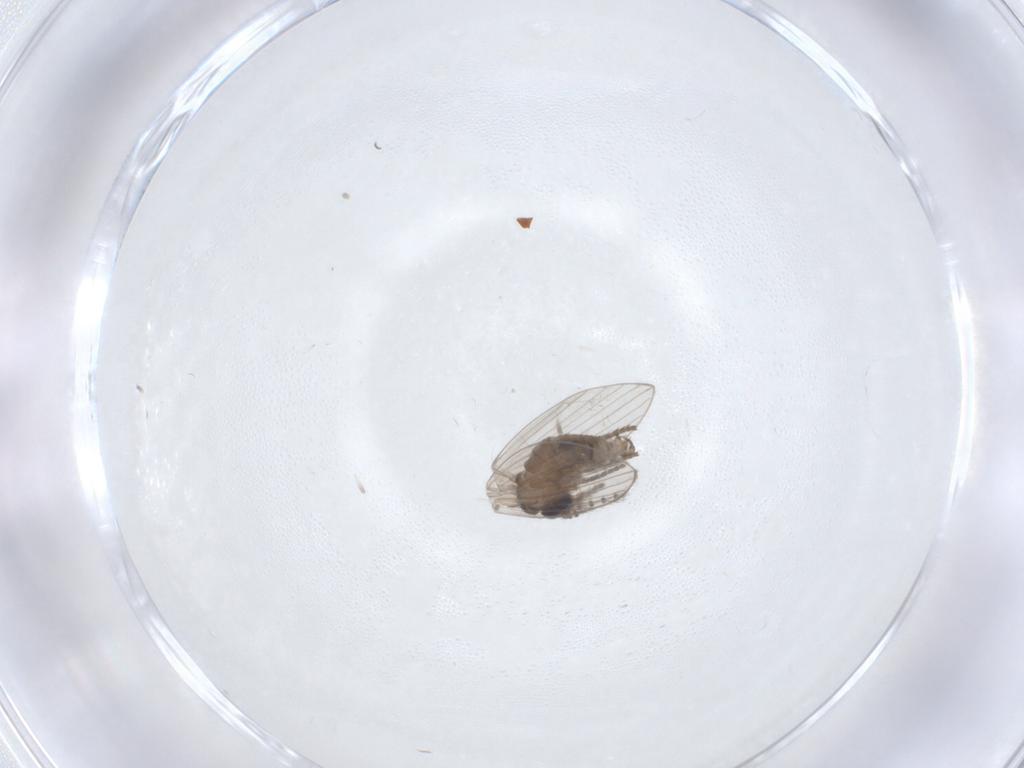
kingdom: Animalia
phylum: Arthropoda
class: Insecta
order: Diptera
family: Psychodidae
